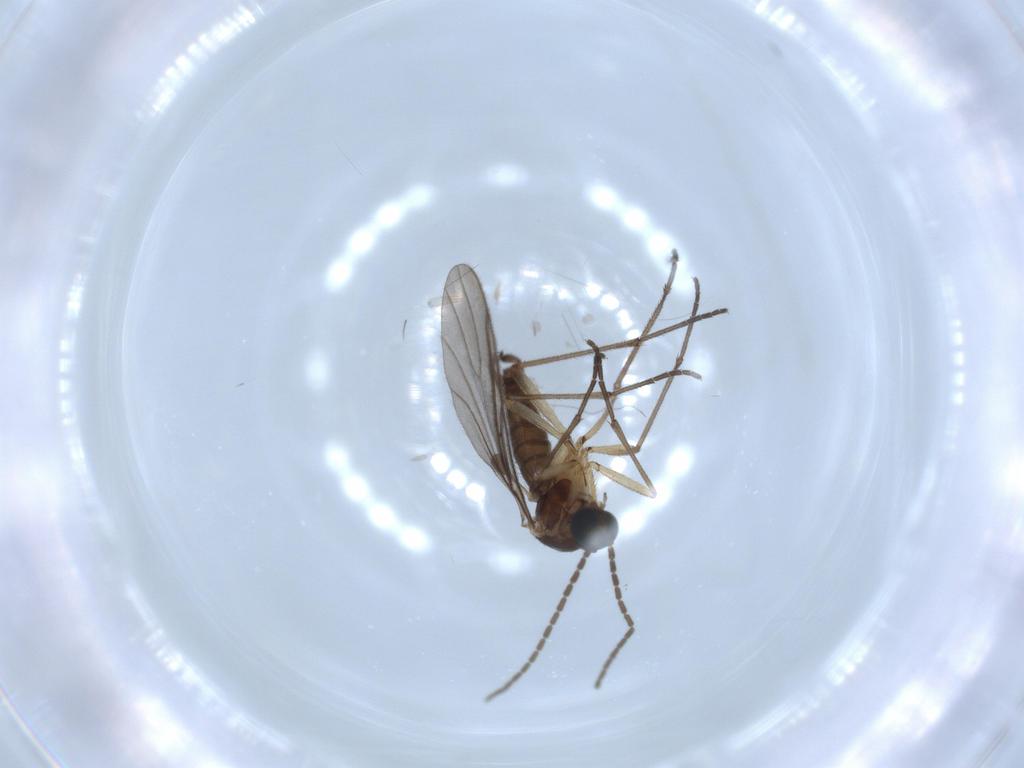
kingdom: Animalia
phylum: Arthropoda
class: Insecta
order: Diptera
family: Sciaridae
